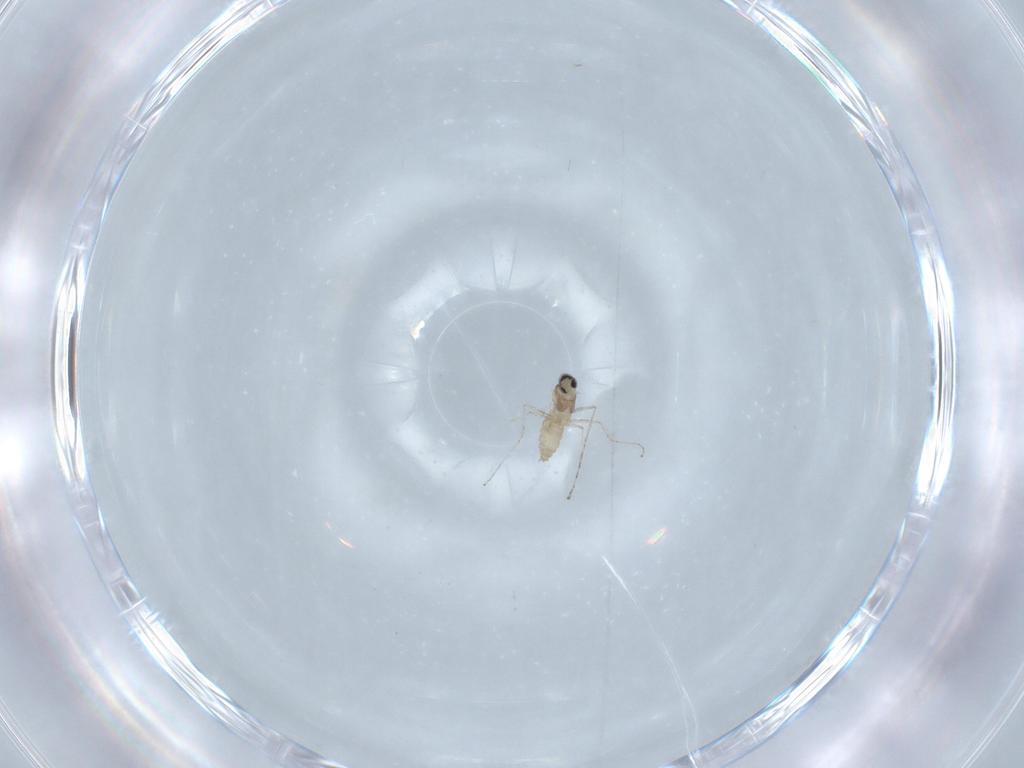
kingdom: Animalia
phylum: Arthropoda
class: Insecta
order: Diptera
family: Cecidomyiidae
